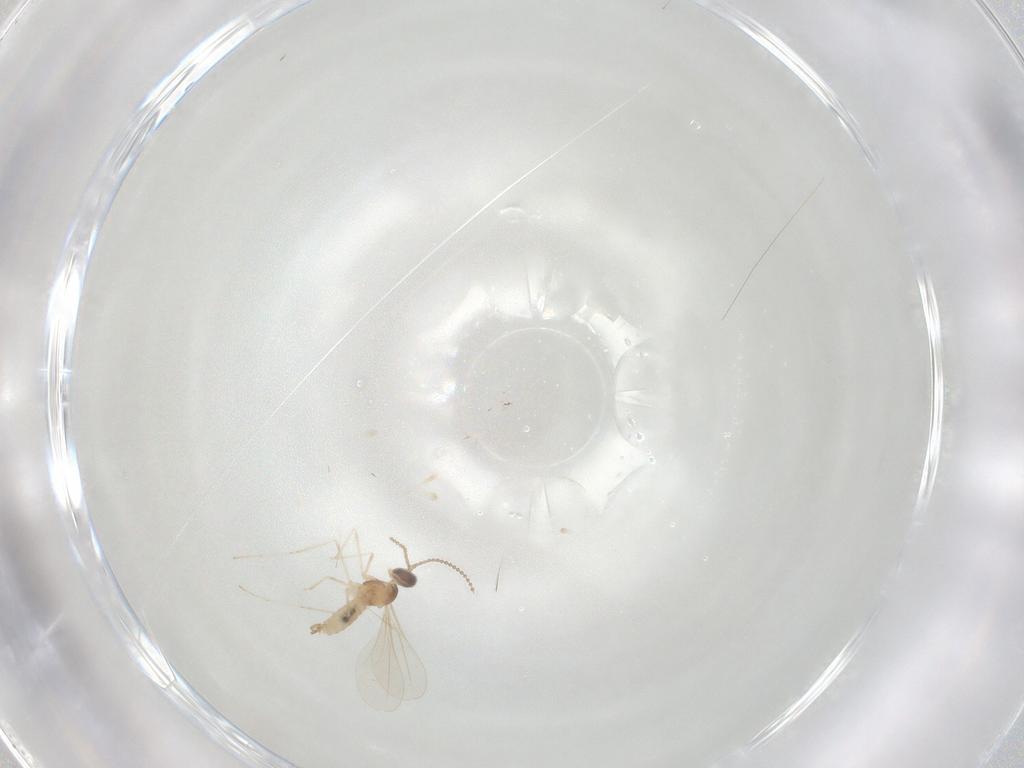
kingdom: Animalia
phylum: Arthropoda
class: Insecta
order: Diptera
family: Cecidomyiidae
